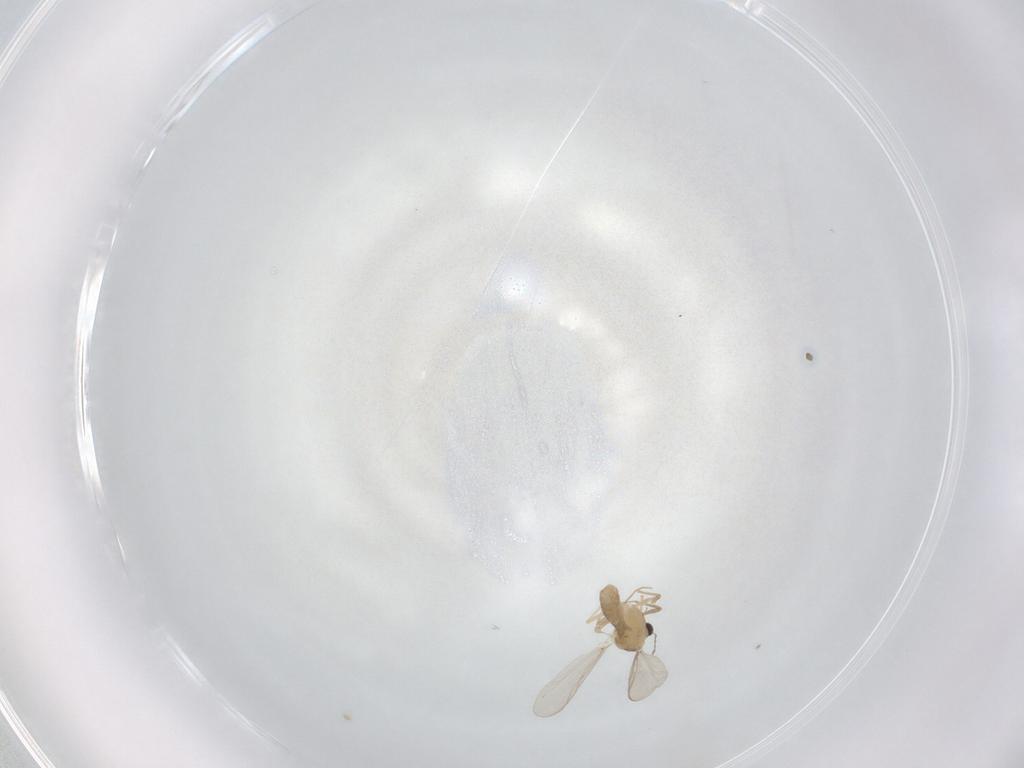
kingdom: Animalia
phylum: Arthropoda
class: Insecta
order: Diptera
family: Chironomidae
